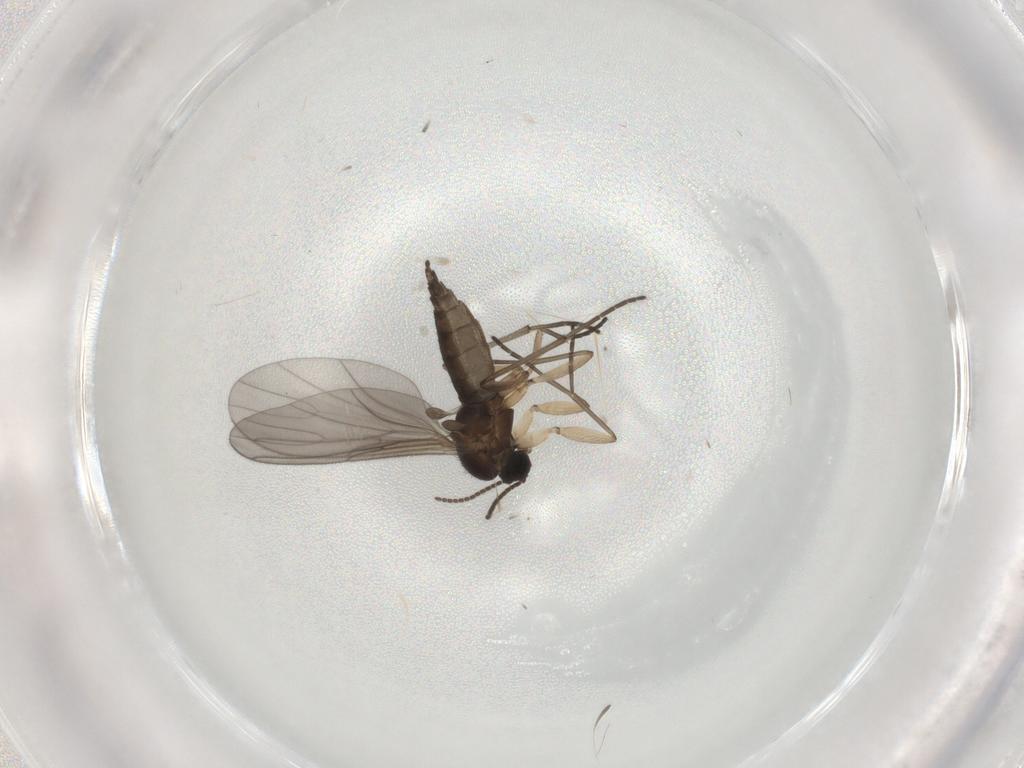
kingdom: Animalia
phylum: Arthropoda
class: Insecta
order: Diptera
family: Sciaridae
